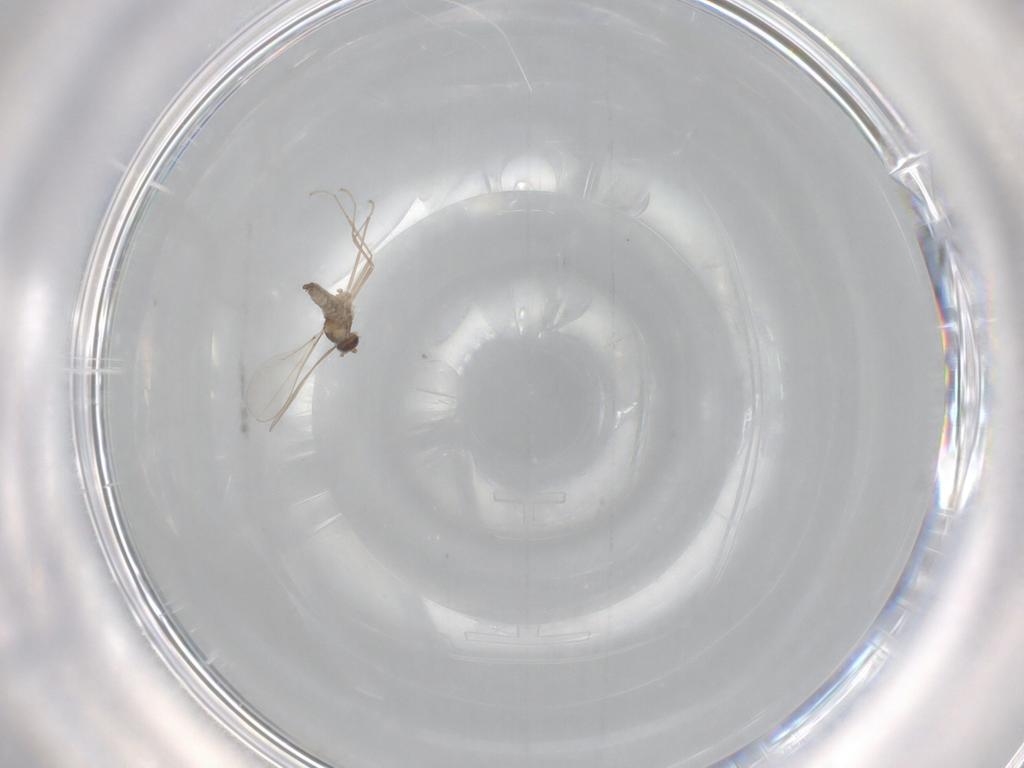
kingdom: Animalia
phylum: Arthropoda
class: Insecta
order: Diptera
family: Cecidomyiidae
